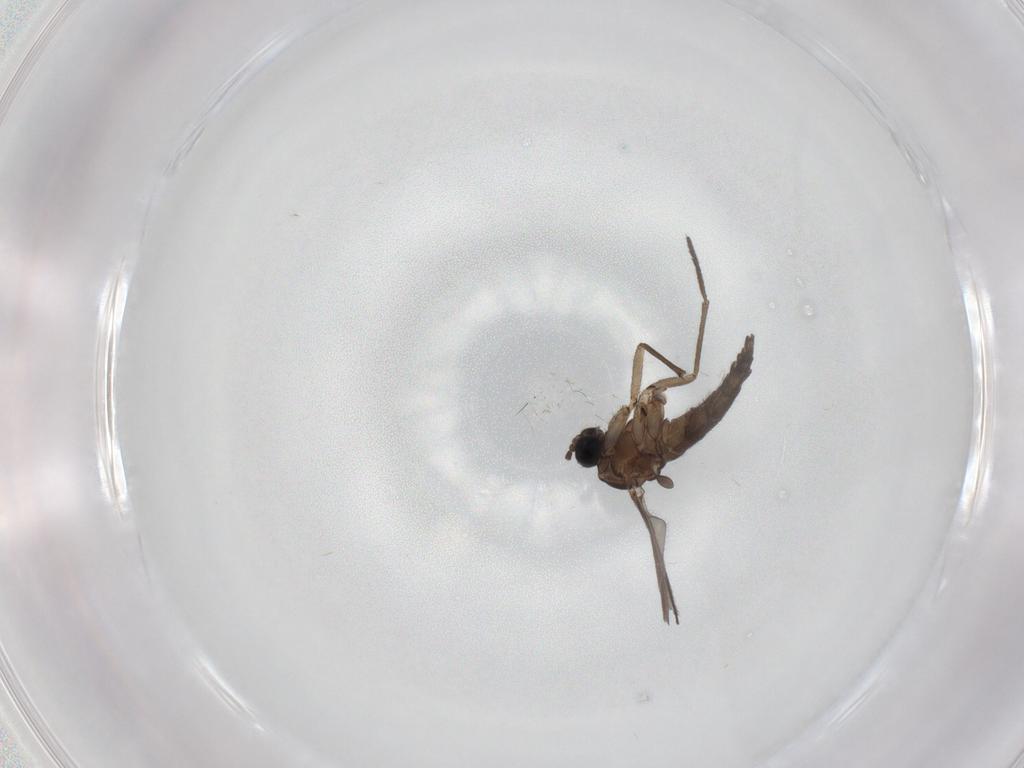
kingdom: Animalia
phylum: Arthropoda
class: Insecta
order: Diptera
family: Sciaridae
